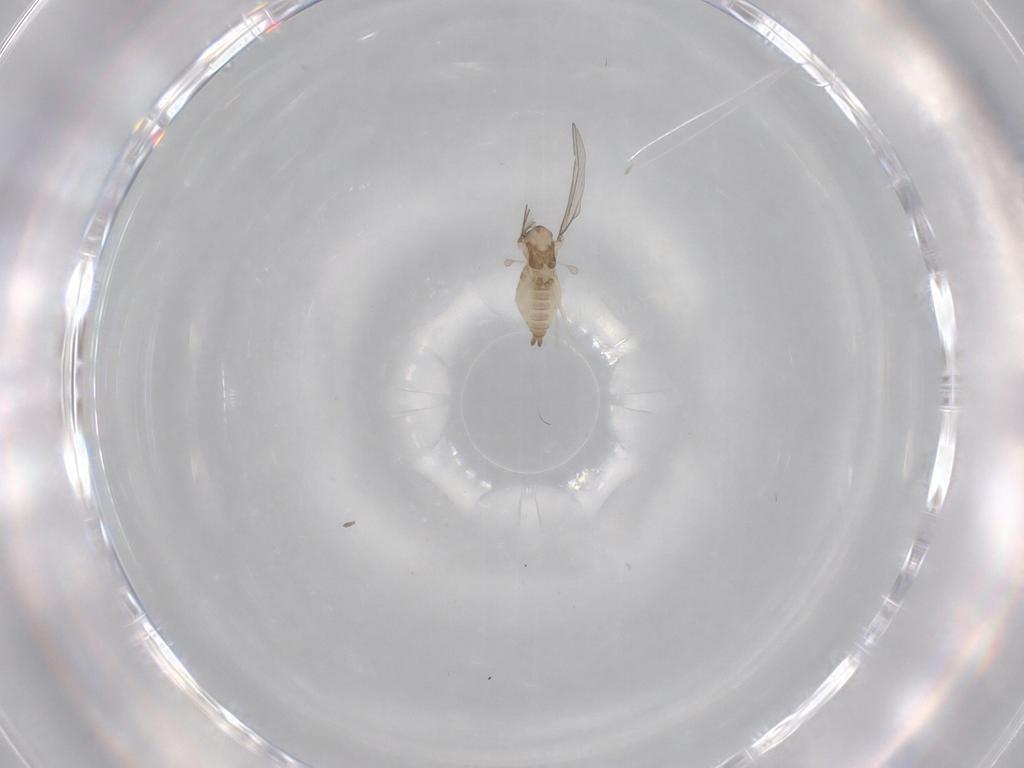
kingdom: Animalia
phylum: Arthropoda
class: Insecta
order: Diptera
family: Cecidomyiidae
